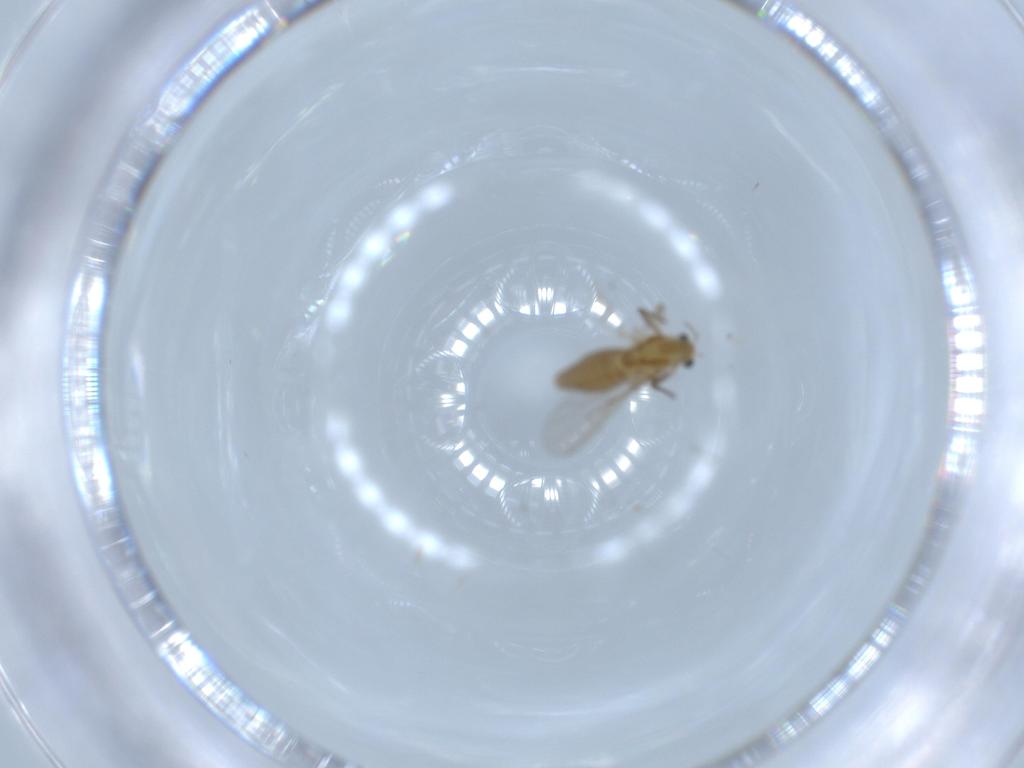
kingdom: Animalia
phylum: Arthropoda
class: Insecta
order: Diptera
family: Chironomidae
